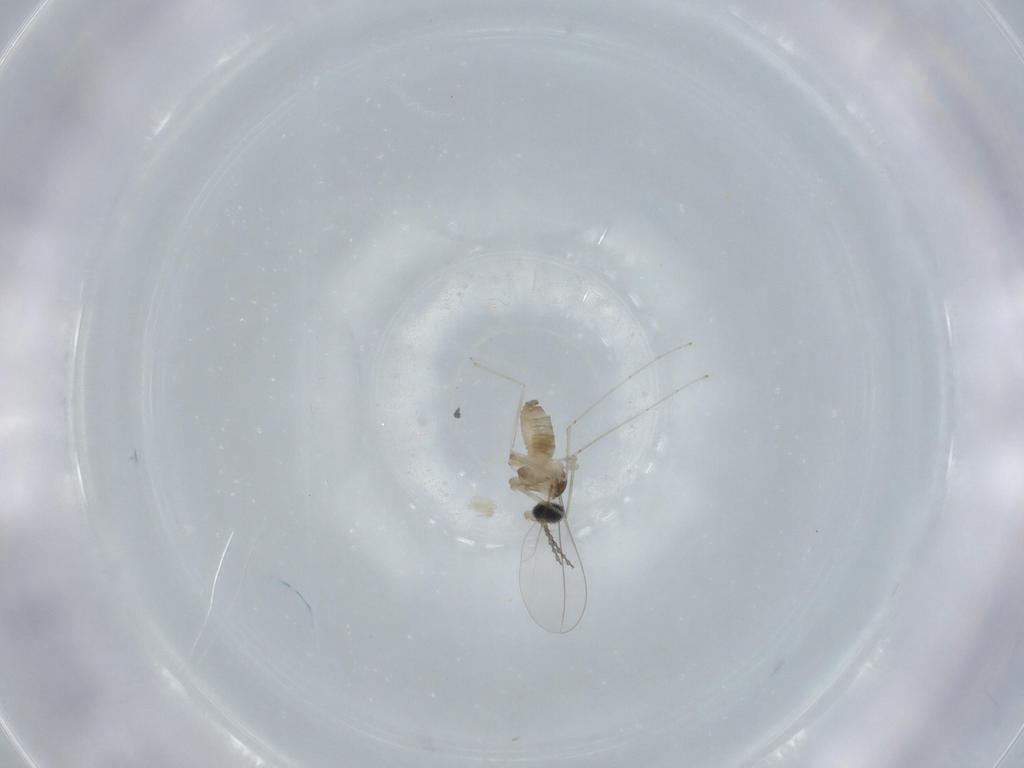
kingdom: Animalia
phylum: Arthropoda
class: Insecta
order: Diptera
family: Cecidomyiidae
